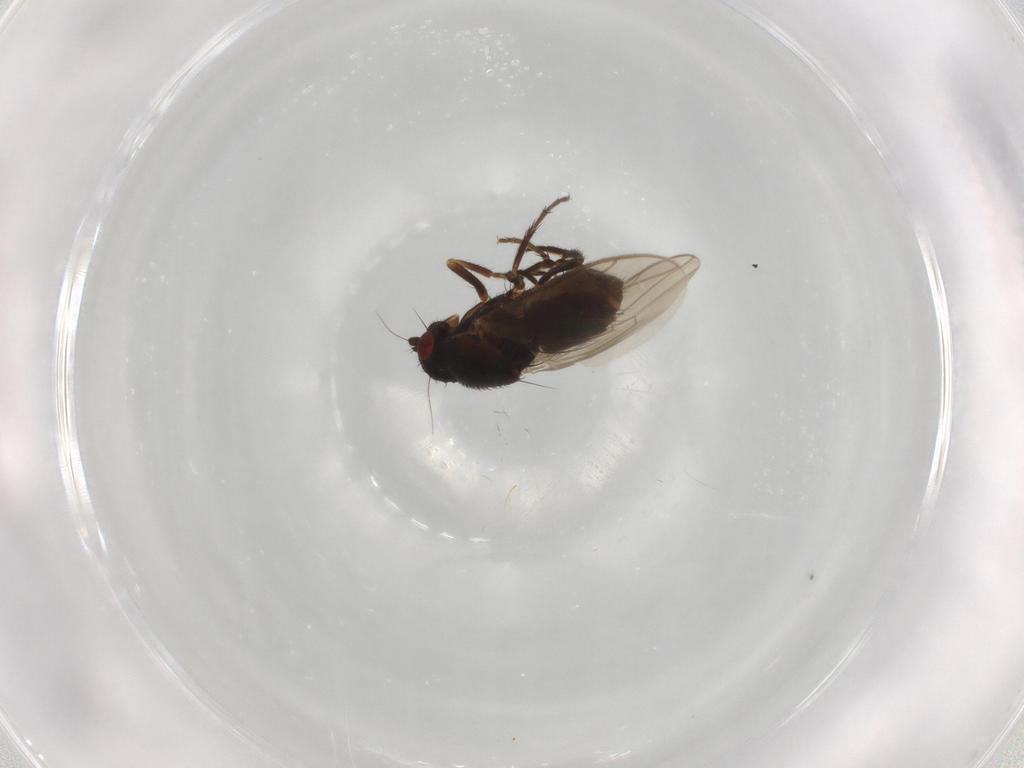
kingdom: Animalia
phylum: Arthropoda
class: Insecta
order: Diptera
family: Sphaeroceridae
